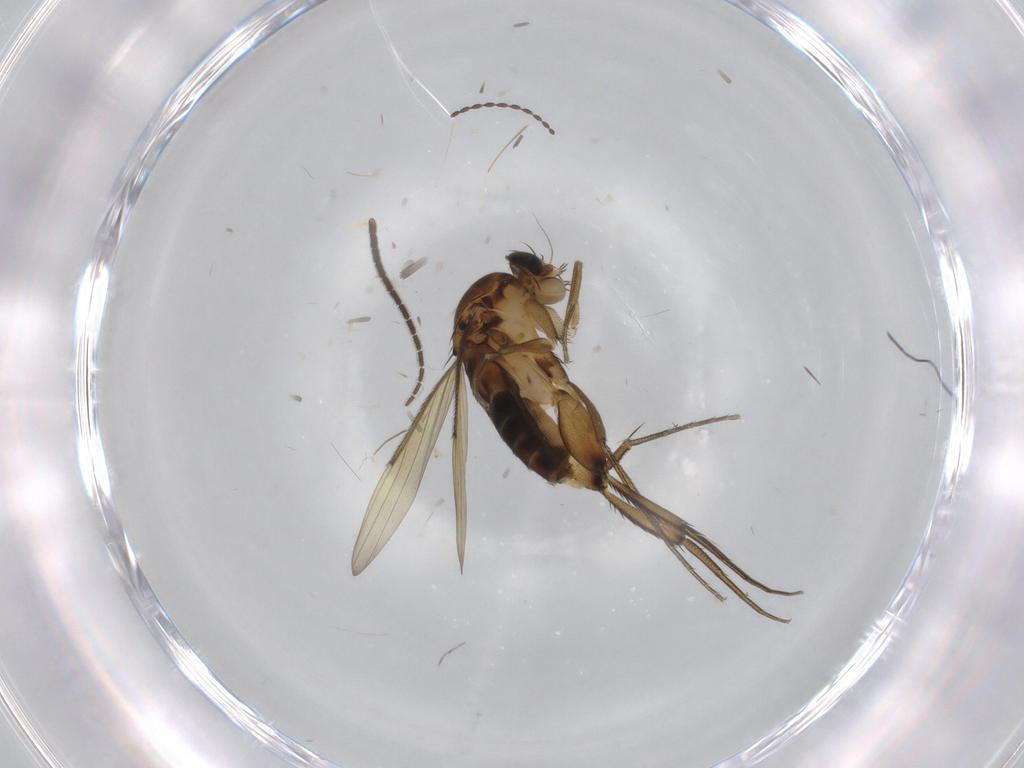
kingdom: Animalia
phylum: Arthropoda
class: Insecta
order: Diptera
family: Phoridae
